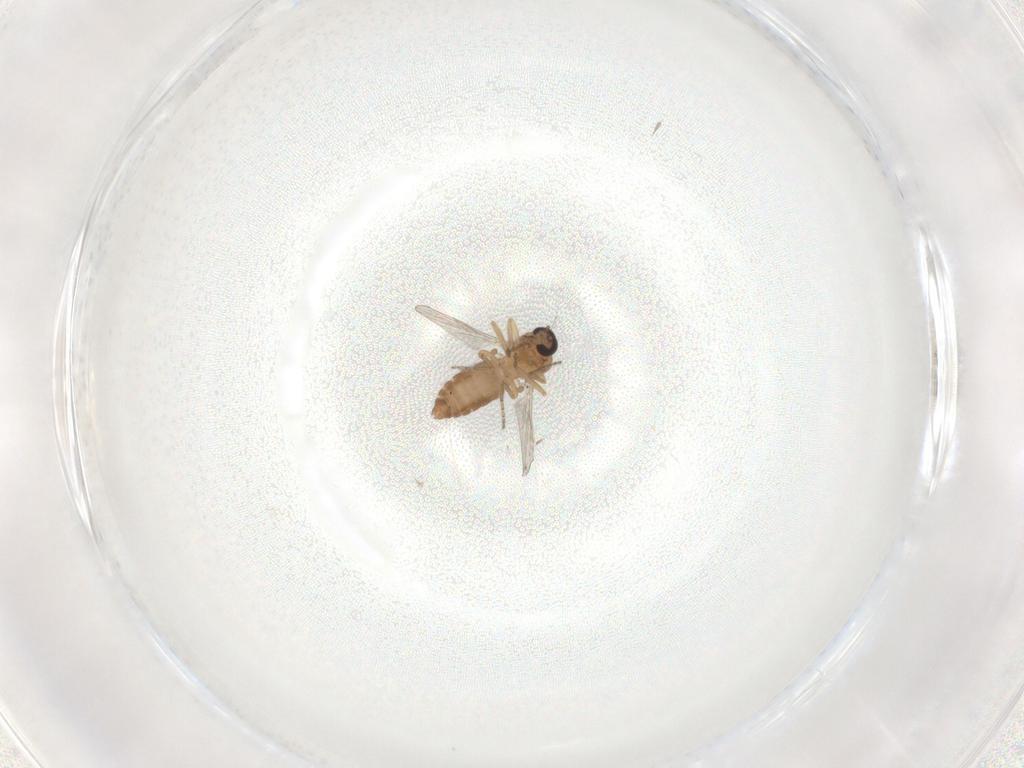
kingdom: Animalia
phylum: Arthropoda
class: Insecta
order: Diptera
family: Ceratopogonidae
